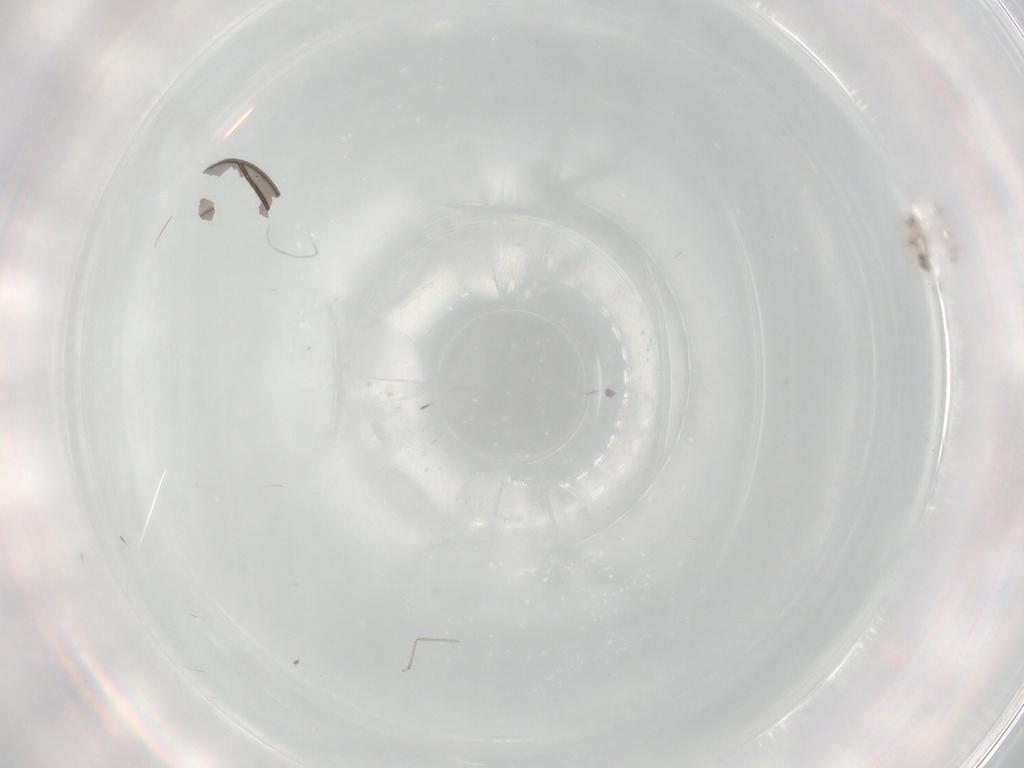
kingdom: Animalia
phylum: Arthropoda
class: Insecta
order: Diptera
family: Sciaridae
